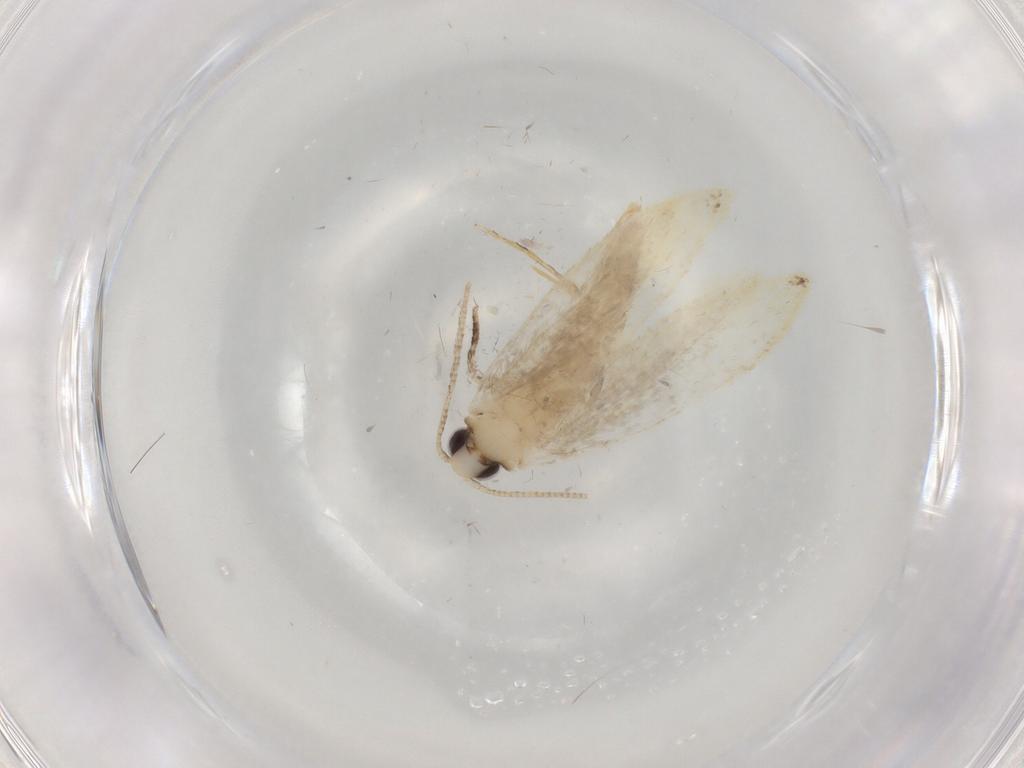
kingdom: Animalia
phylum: Arthropoda
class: Insecta
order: Lepidoptera
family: Tineidae
